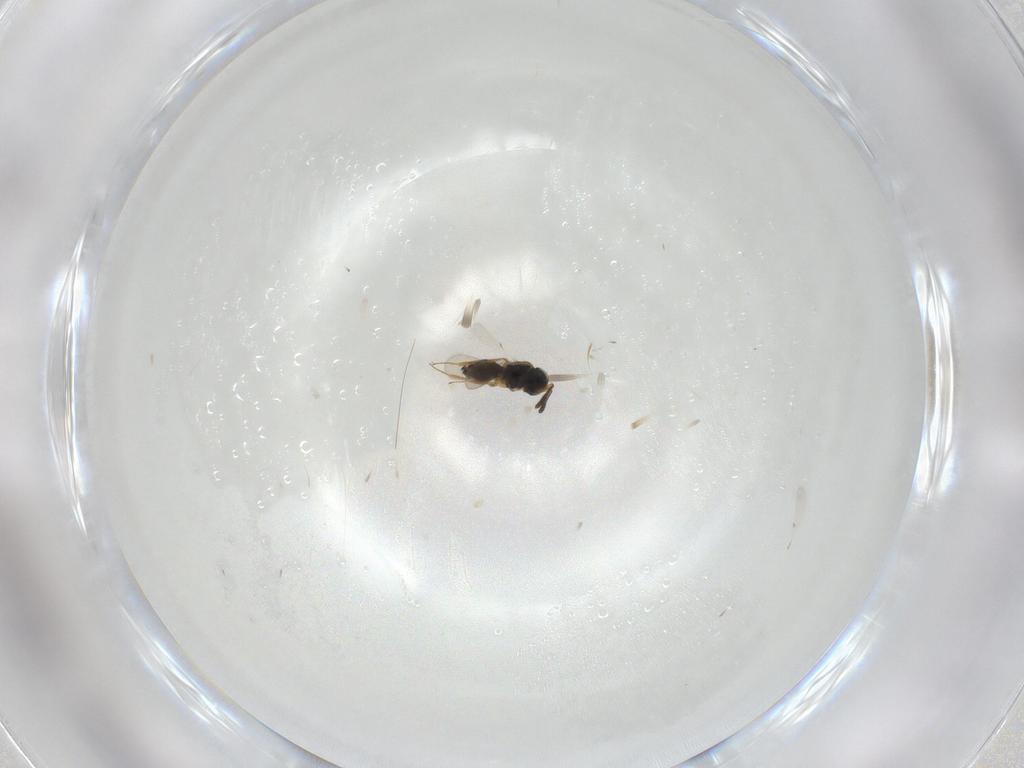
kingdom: Animalia
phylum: Arthropoda
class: Insecta
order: Hymenoptera
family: Scelionidae
